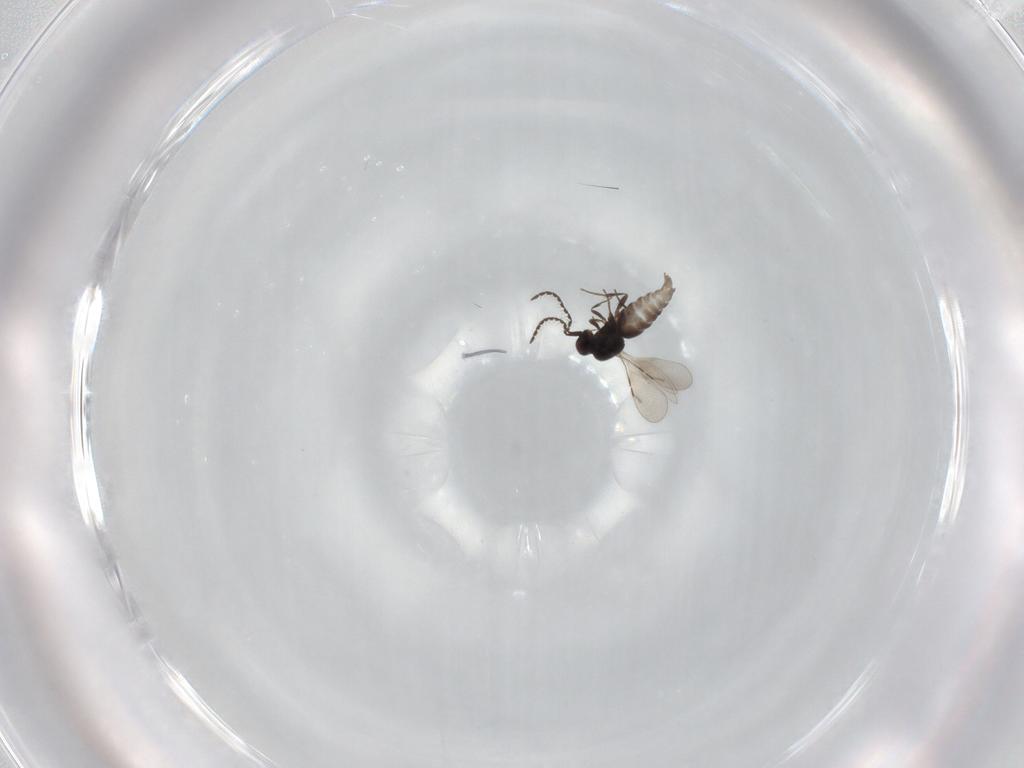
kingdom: Animalia
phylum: Arthropoda
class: Insecta
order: Hymenoptera
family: Ceraphronidae
